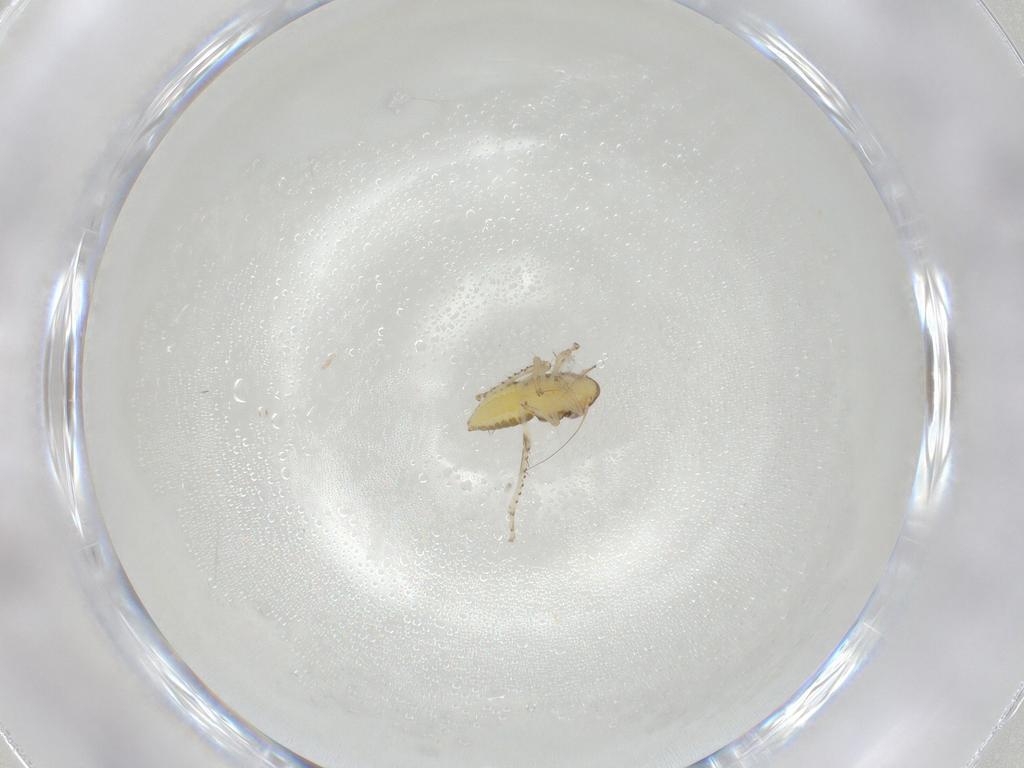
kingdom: Animalia
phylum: Arthropoda
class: Insecta
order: Hemiptera
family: Cicadellidae
